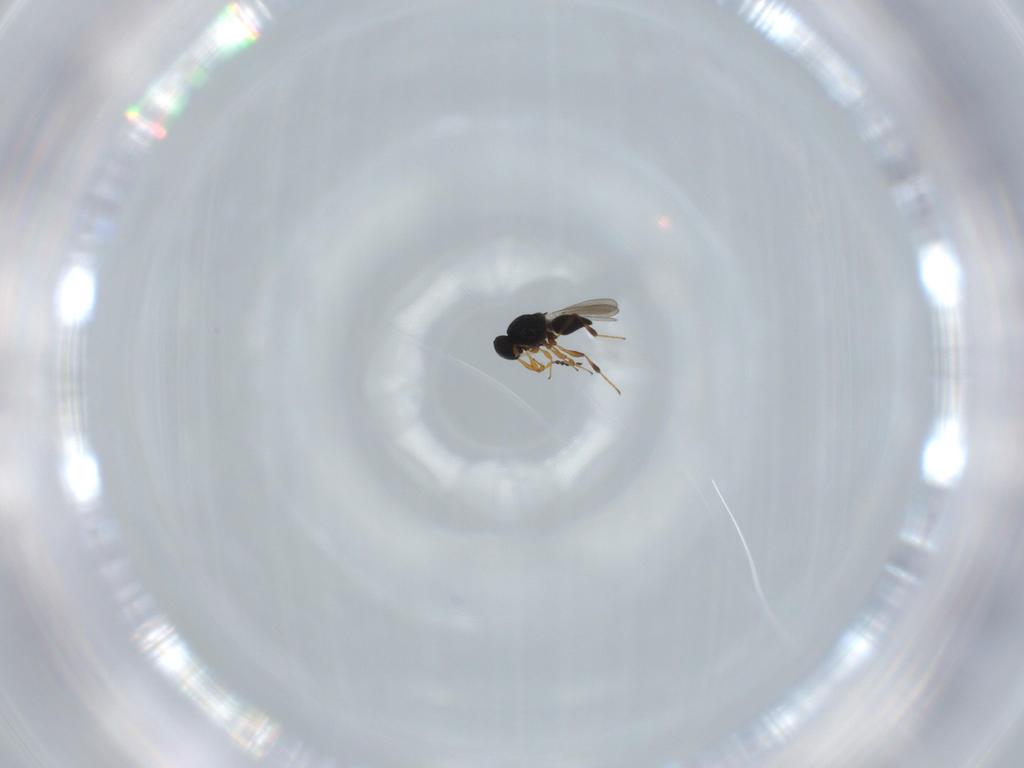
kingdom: Animalia
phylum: Arthropoda
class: Insecta
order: Hymenoptera
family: Platygastridae
